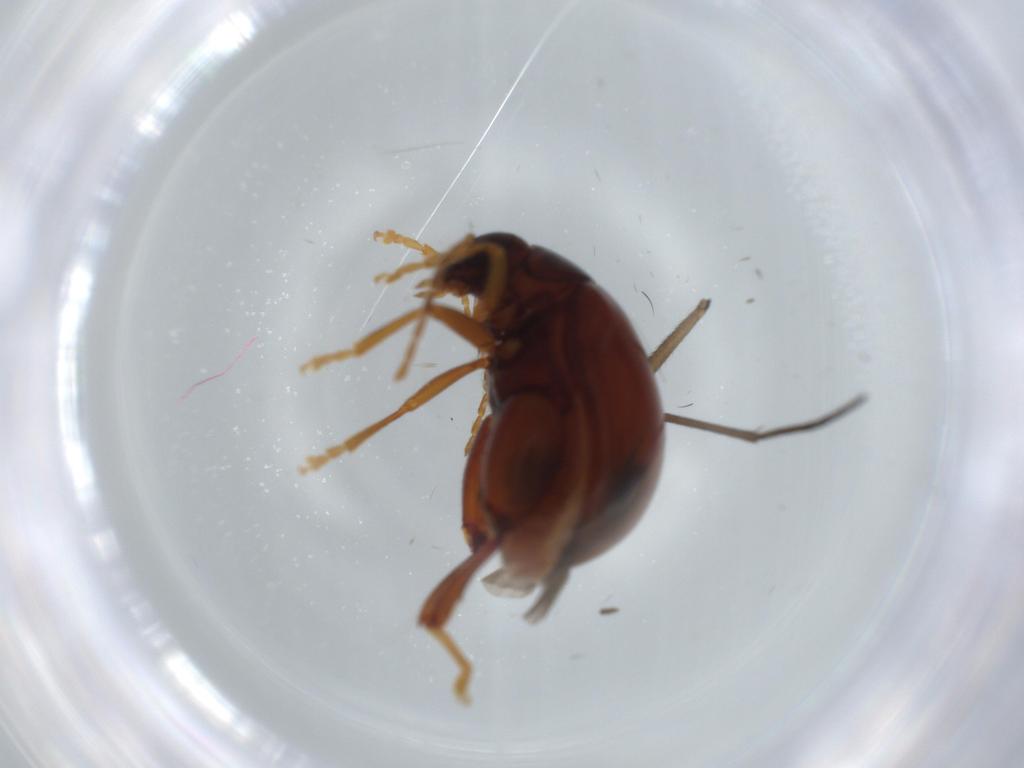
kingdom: Animalia
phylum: Arthropoda
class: Insecta
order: Coleoptera
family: Chrysomelidae
